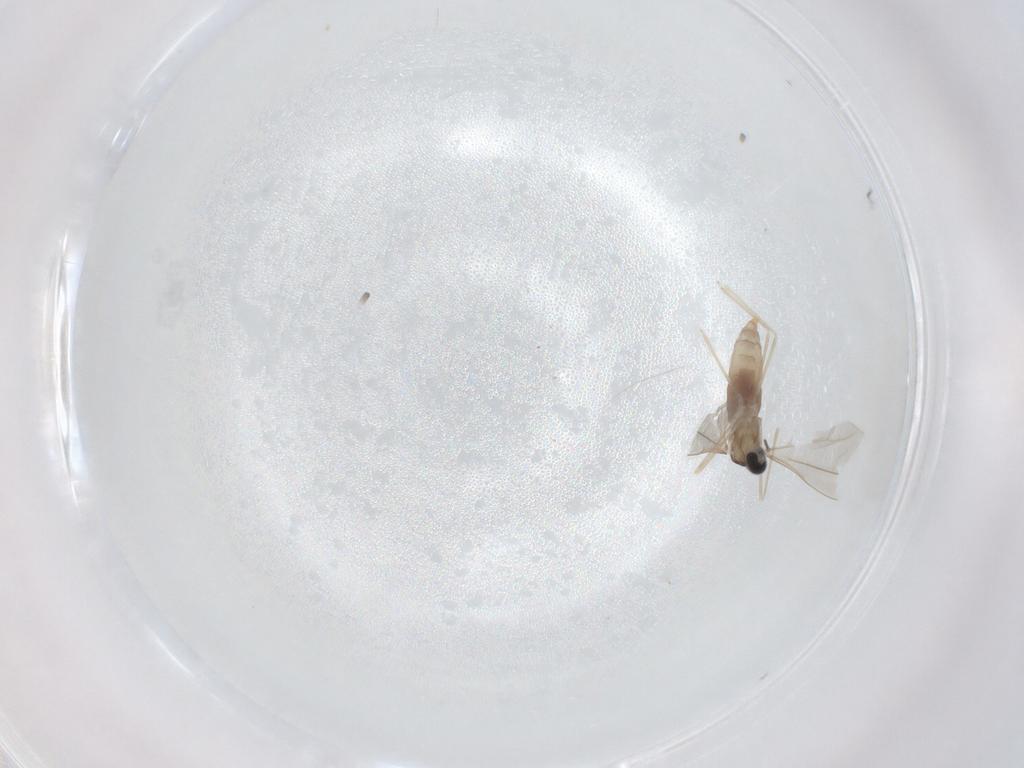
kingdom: Animalia
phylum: Arthropoda
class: Insecta
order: Diptera
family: Cecidomyiidae
